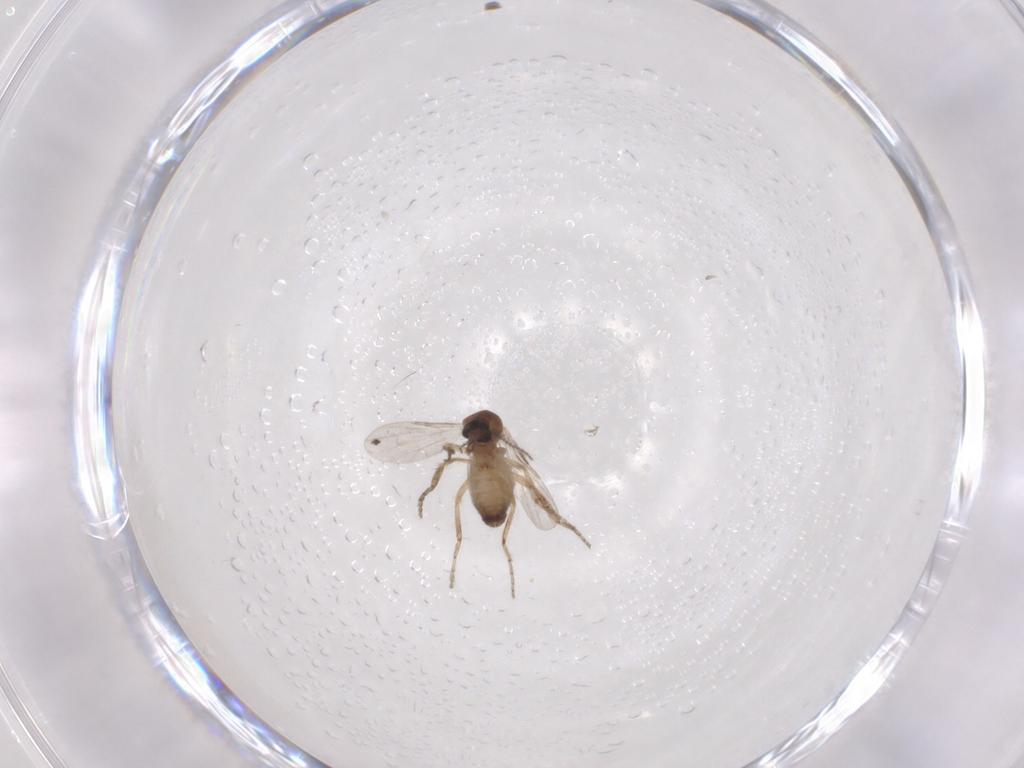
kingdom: Animalia
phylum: Arthropoda
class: Insecta
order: Diptera
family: Ceratopogonidae
